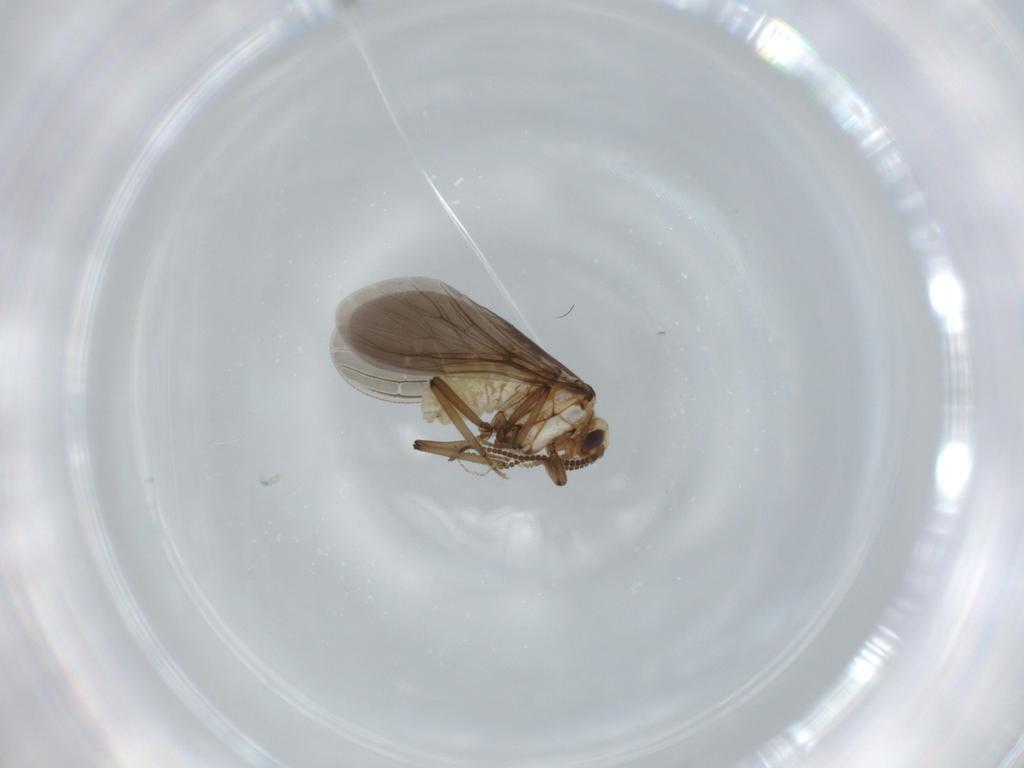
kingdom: Animalia
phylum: Arthropoda
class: Insecta
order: Neuroptera
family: Coniopterygidae
